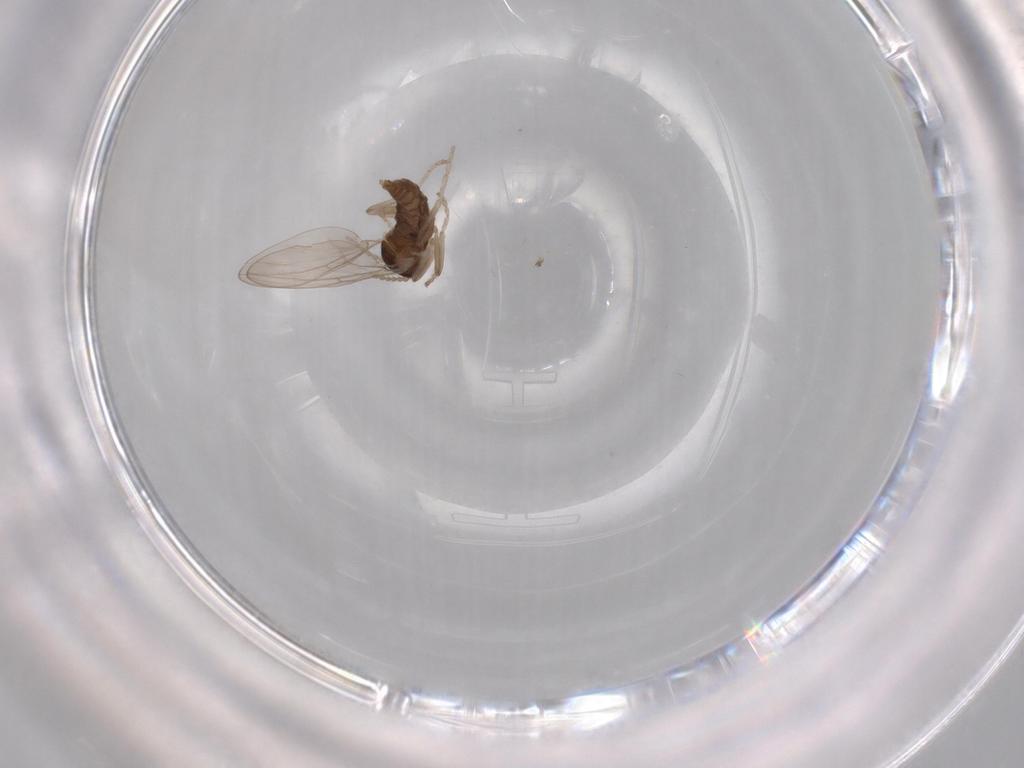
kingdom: Animalia
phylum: Arthropoda
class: Insecta
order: Diptera
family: Cecidomyiidae
